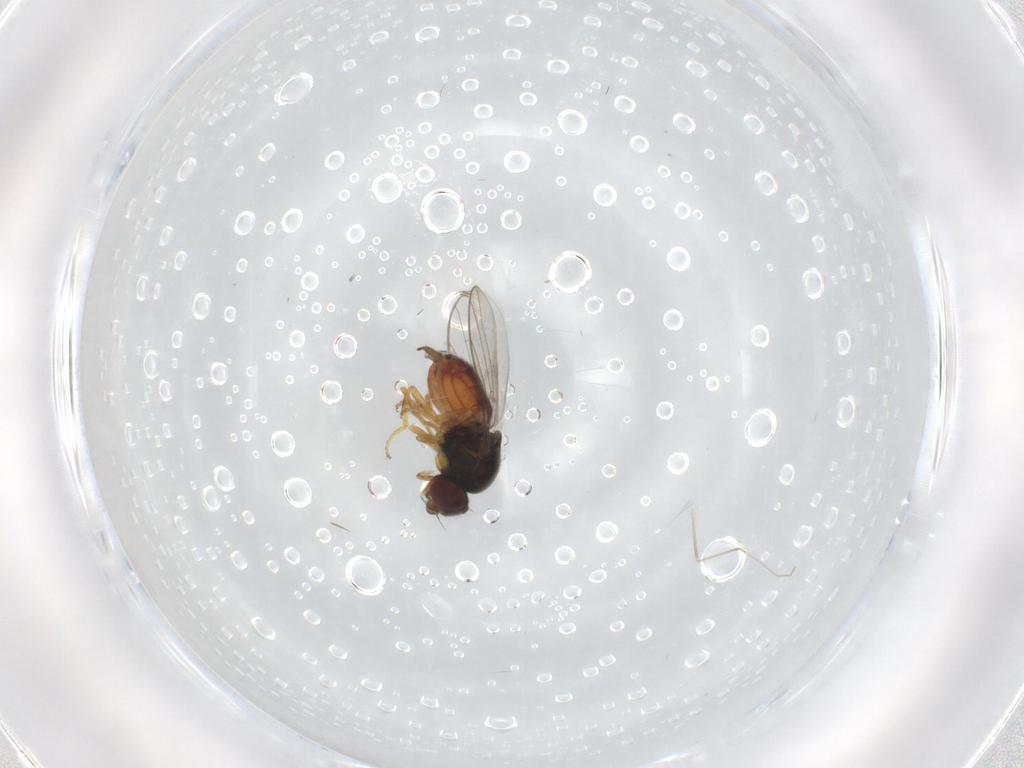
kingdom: Animalia
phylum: Arthropoda
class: Insecta
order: Diptera
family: Chloropidae
